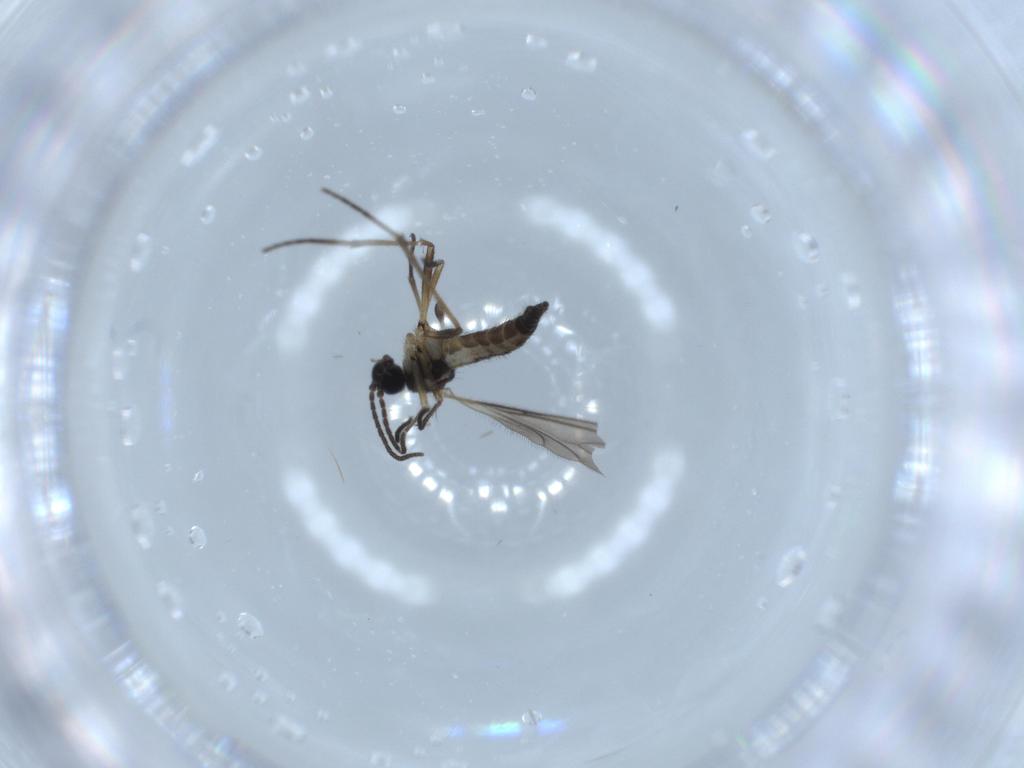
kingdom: Animalia
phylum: Arthropoda
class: Insecta
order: Diptera
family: Sciaridae
